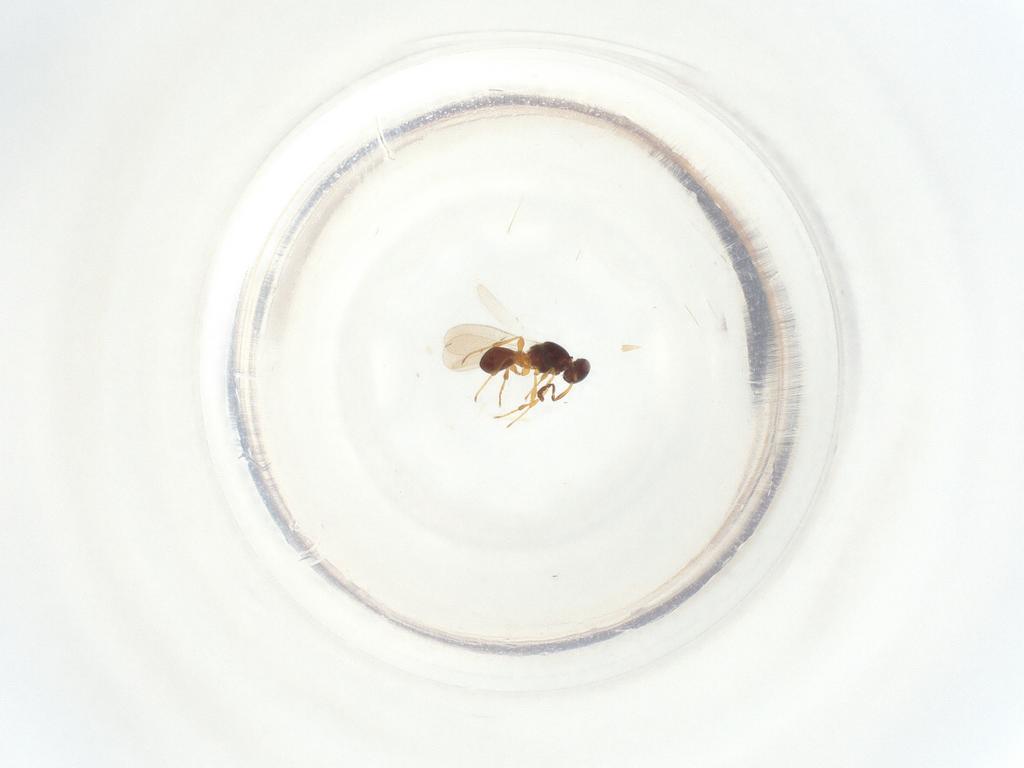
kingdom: Animalia
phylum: Arthropoda
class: Insecta
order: Hymenoptera
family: Platygastridae
